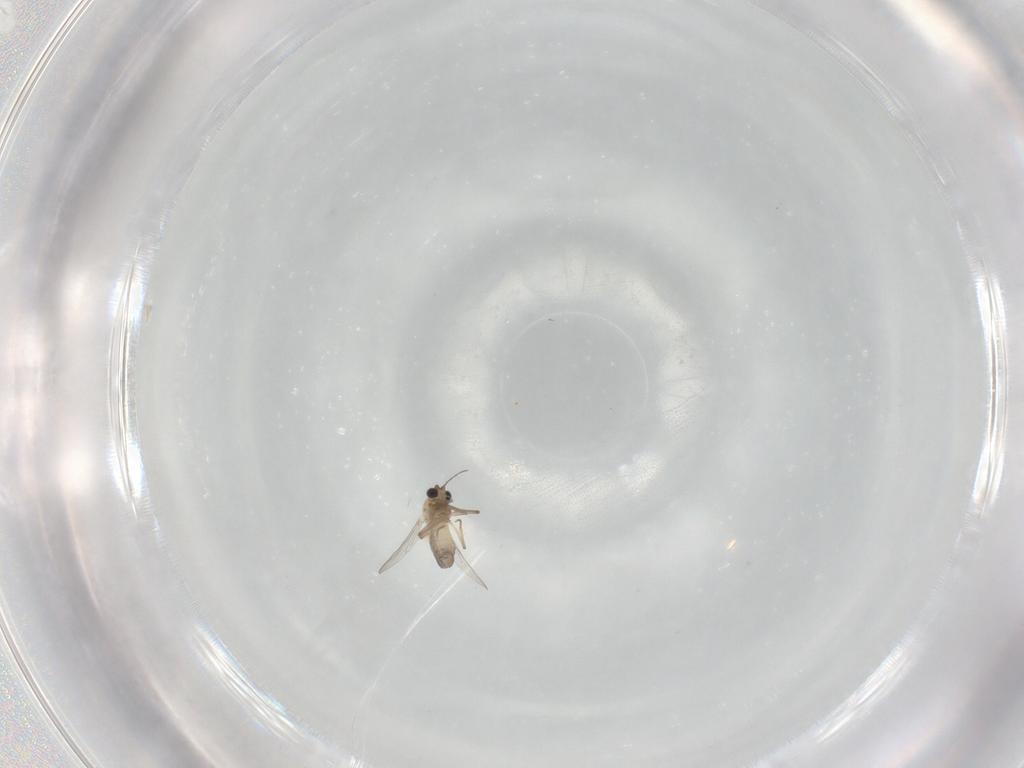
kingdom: Animalia
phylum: Arthropoda
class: Insecta
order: Diptera
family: Chironomidae
